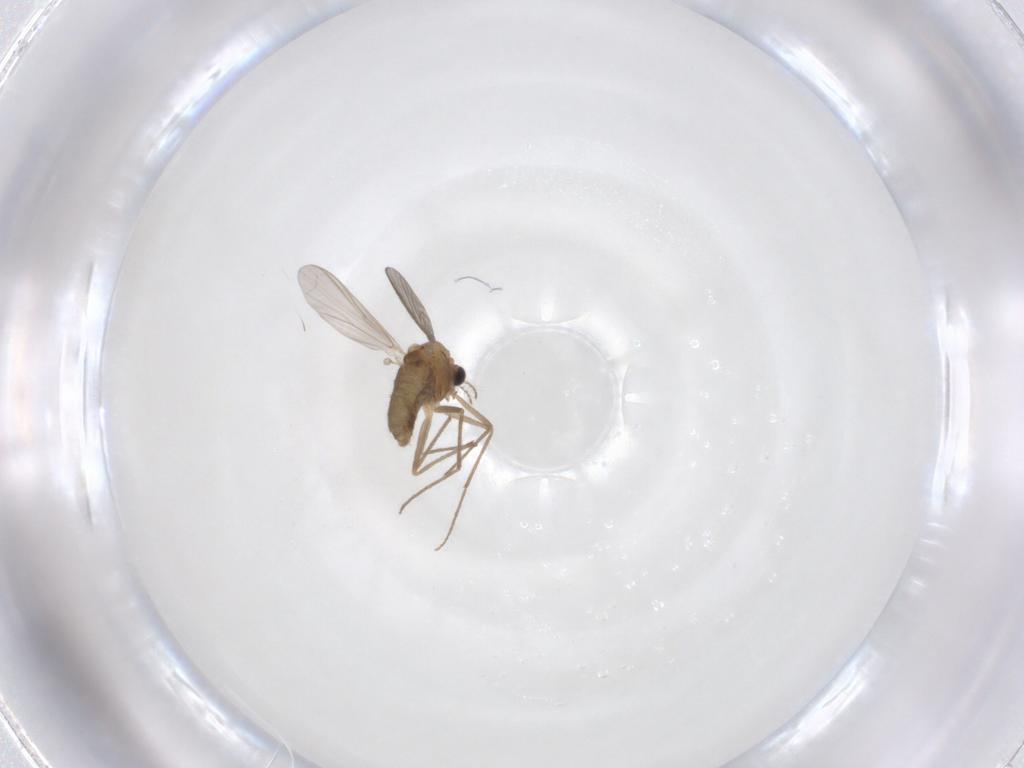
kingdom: Animalia
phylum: Arthropoda
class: Insecta
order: Diptera
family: Chironomidae
